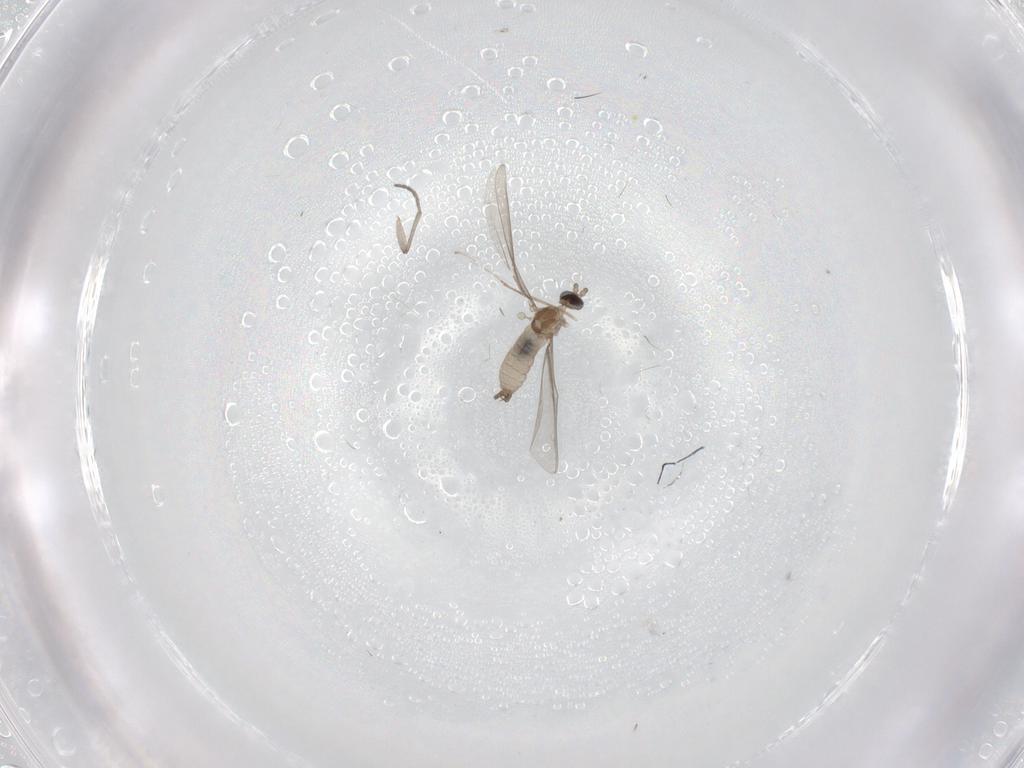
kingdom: Animalia
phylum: Arthropoda
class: Insecta
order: Diptera
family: Sciaridae
